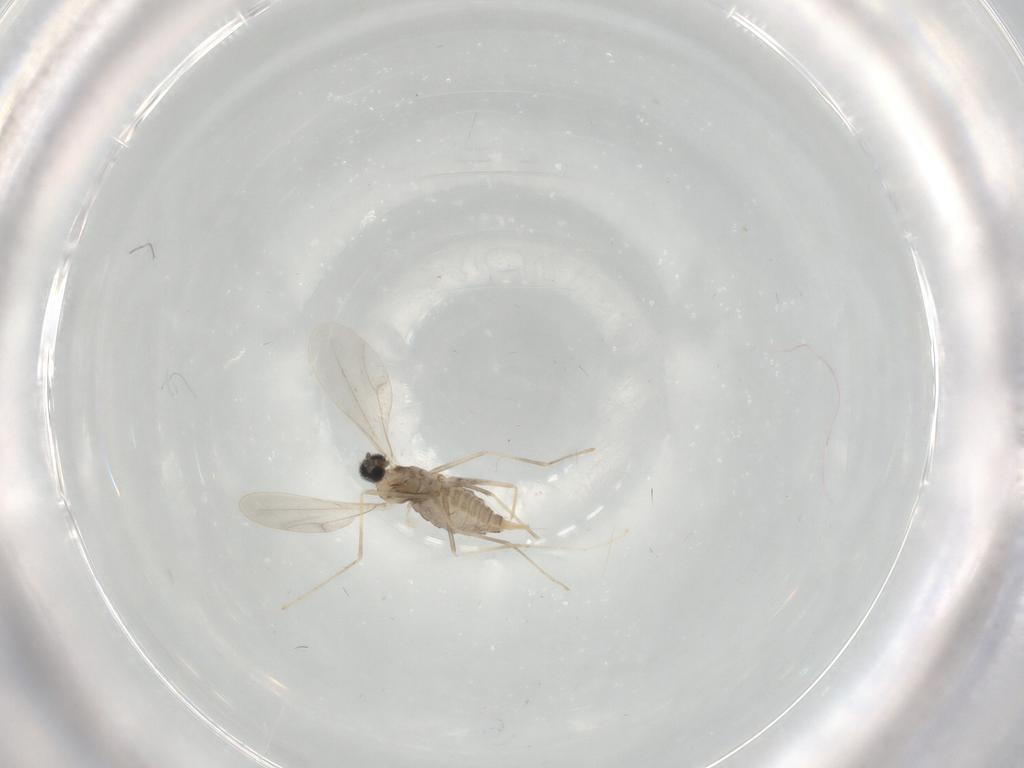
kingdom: Animalia
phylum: Arthropoda
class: Insecta
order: Diptera
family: Cecidomyiidae
